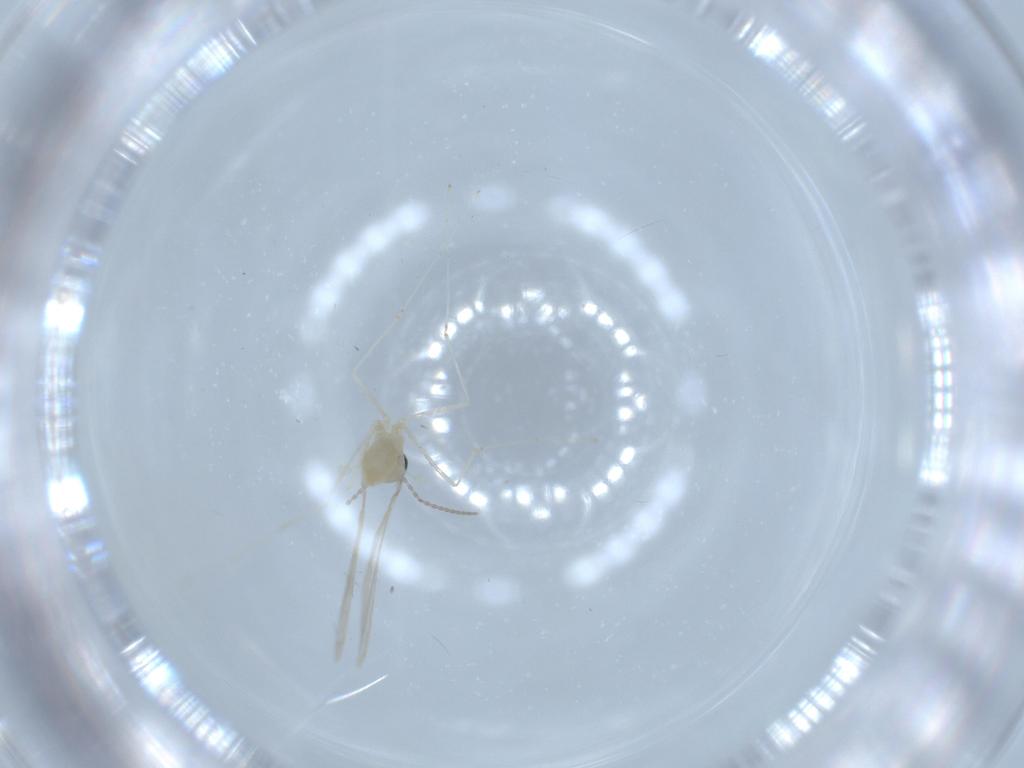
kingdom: Animalia
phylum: Arthropoda
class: Insecta
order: Diptera
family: Cecidomyiidae
